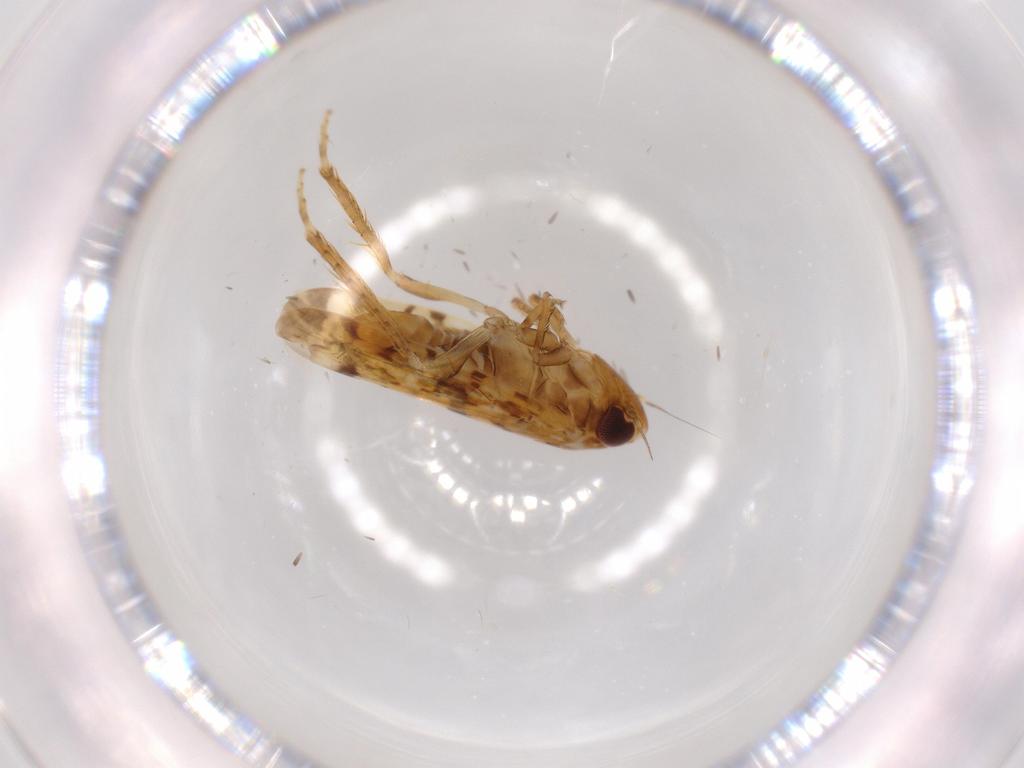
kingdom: Animalia
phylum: Arthropoda
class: Insecta
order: Hemiptera
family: Cicadellidae
